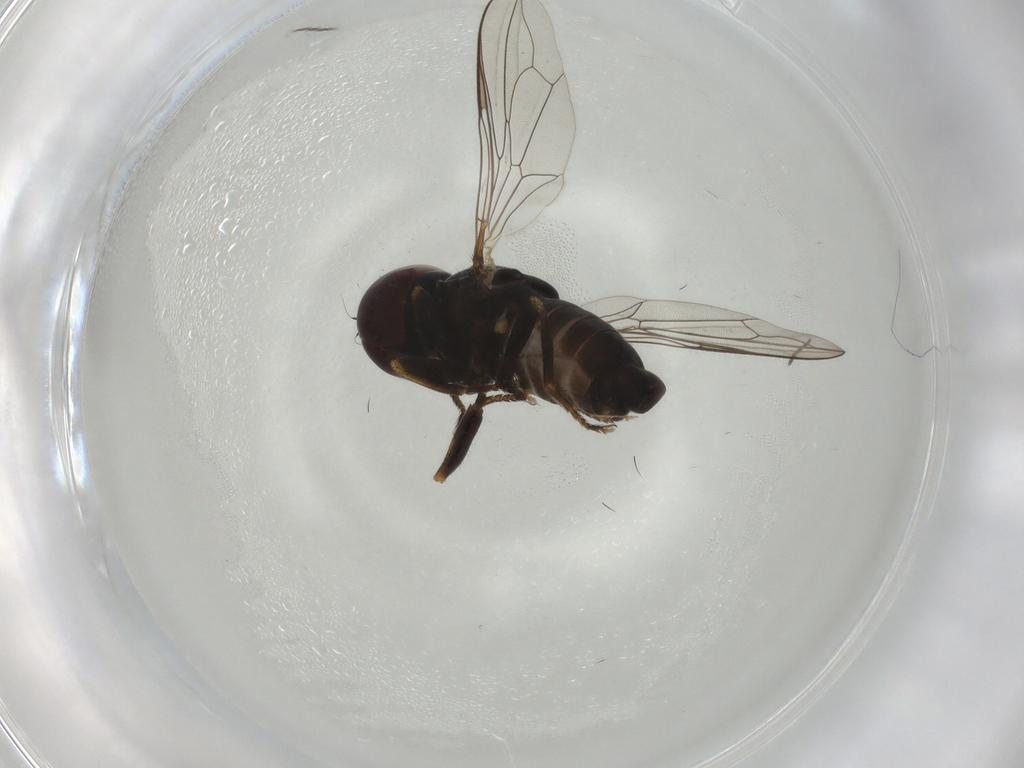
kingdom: Animalia
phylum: Arthropoda
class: Insecta
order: Diptera
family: Pipunculidae
